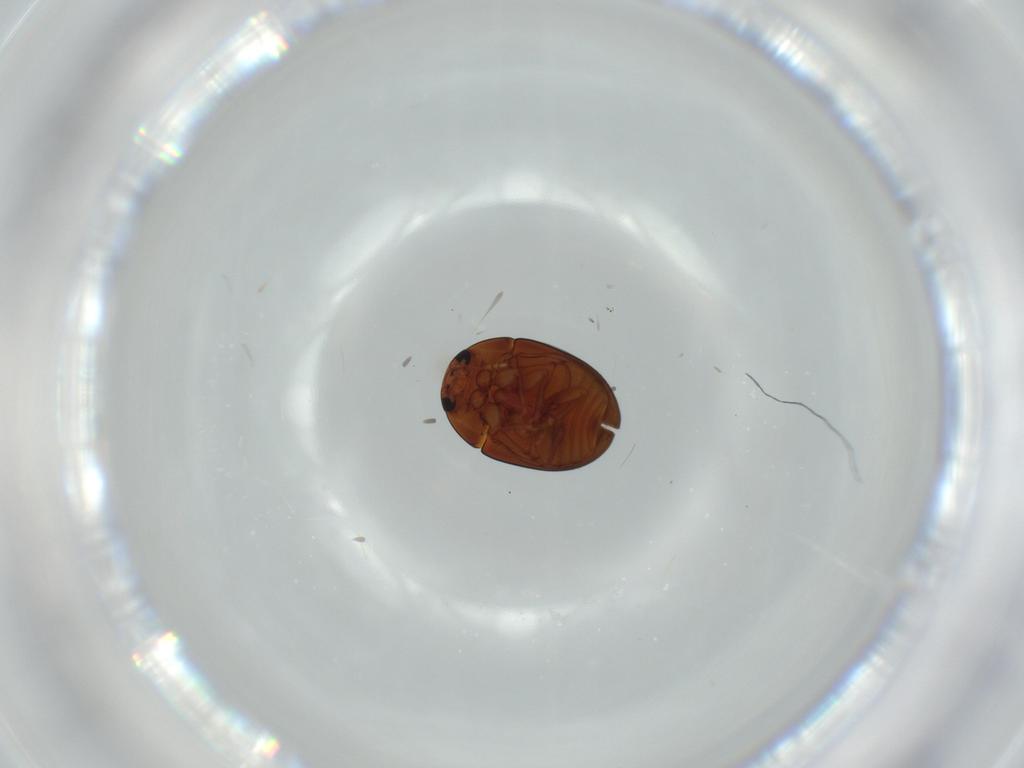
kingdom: Animalia
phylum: Arthropoda
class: Insecta
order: Coleoptera
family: Phalacridae
